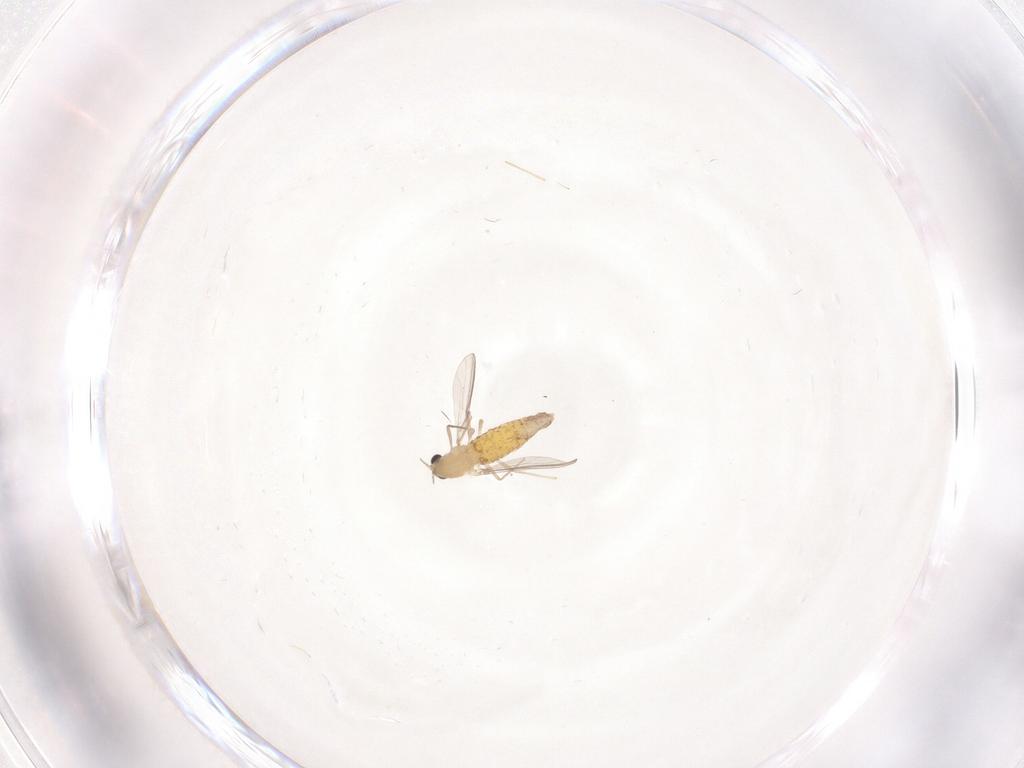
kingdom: Animalia
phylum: Arthropoda
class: Insecta
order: Diptera
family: Chironomidae
